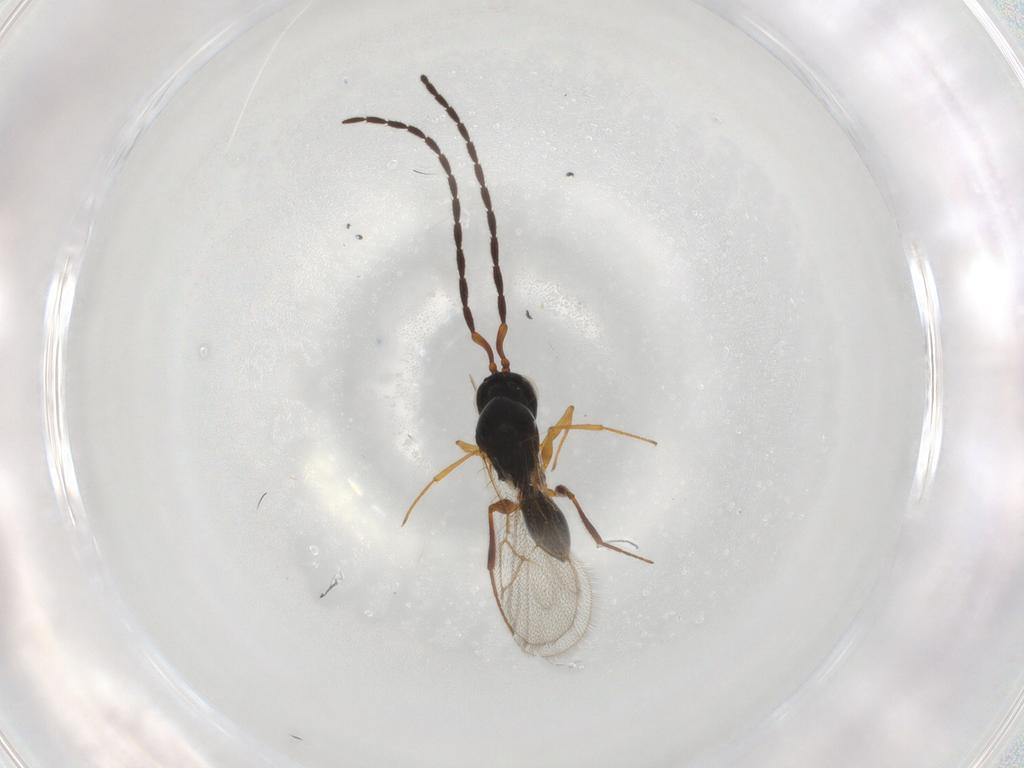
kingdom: Animalia
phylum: Arthropoda
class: Insecta
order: Hymenoptera
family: Figitidae
